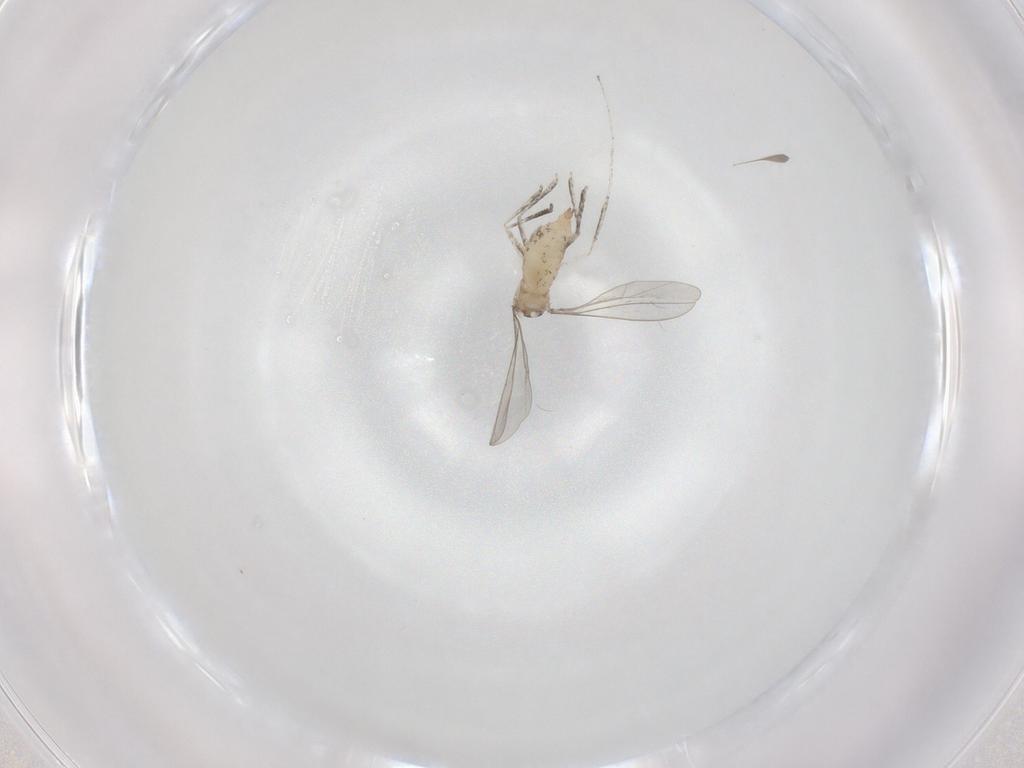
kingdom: Animalia
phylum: Arthropoda
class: Insecta
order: Diptera
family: Cecidomyiidae
